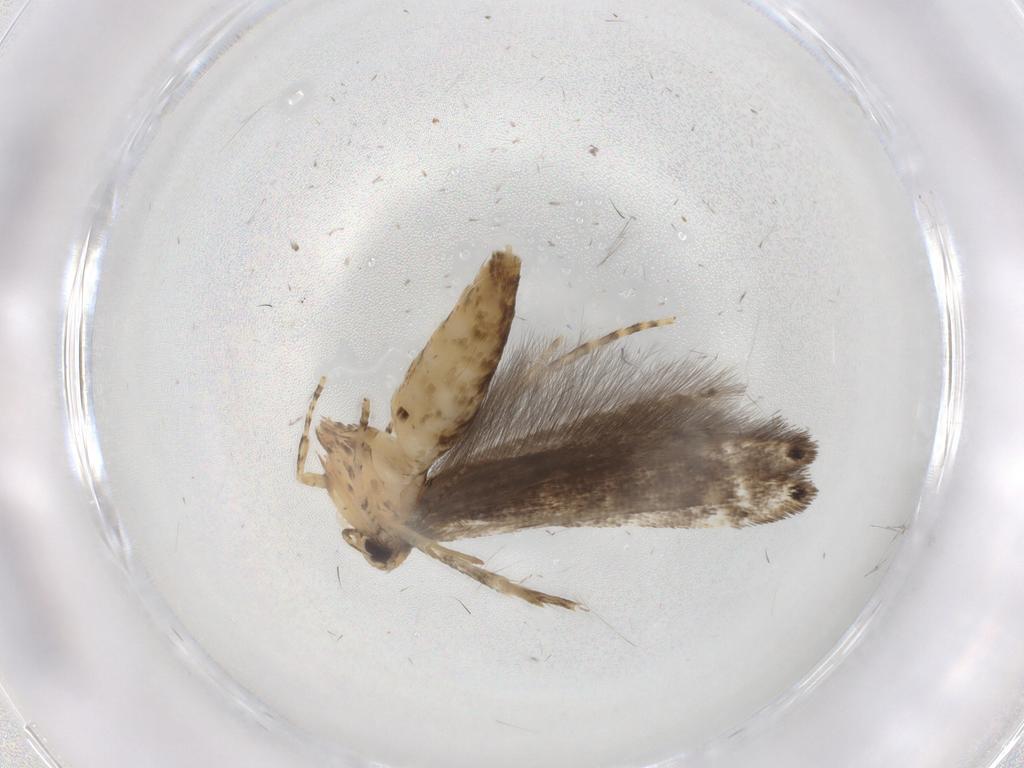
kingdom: Animalia
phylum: Arthropoda
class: Insecta
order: Lepidoptera
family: Cosmopterigidae
